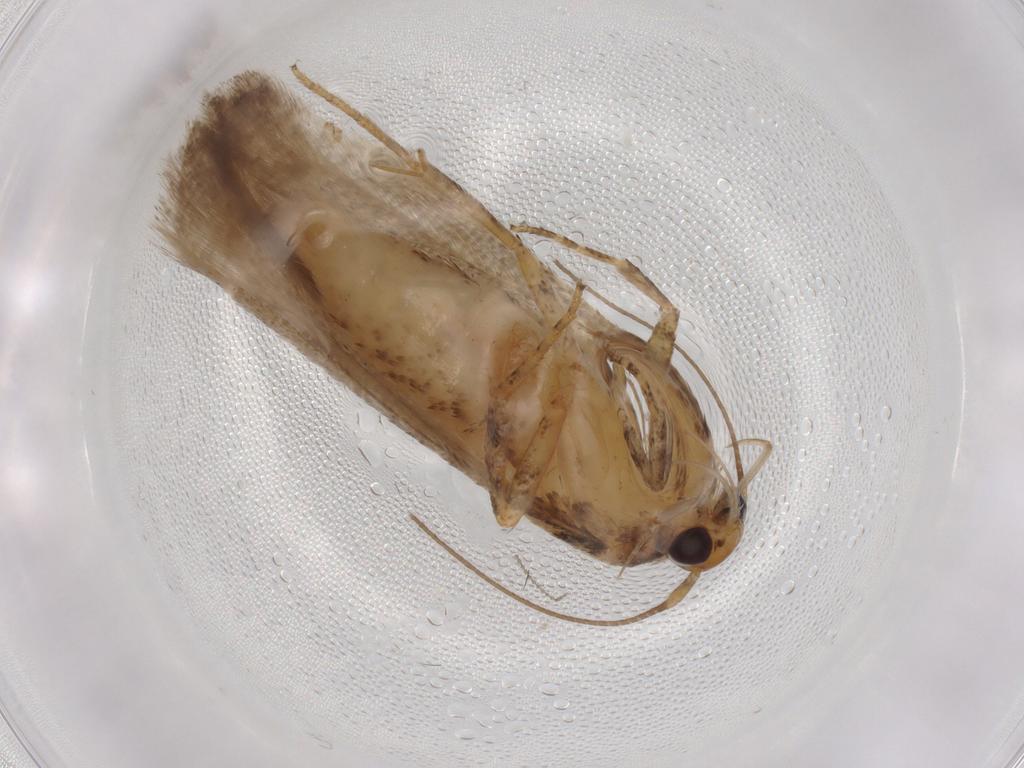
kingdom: Animalia
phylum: Arthropoda
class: Insecta
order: Lepidoptera
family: Gelechiidae
